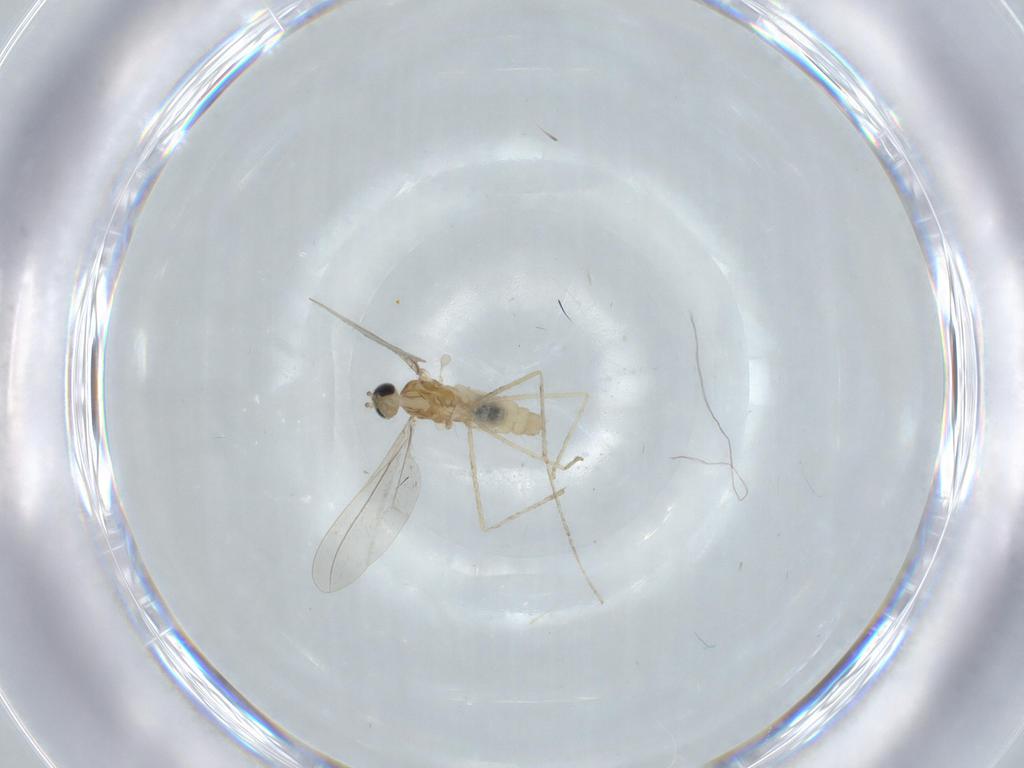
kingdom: Animalia
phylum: Arthropoda
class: Insecta
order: Diptera
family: Cecidomyiidae
